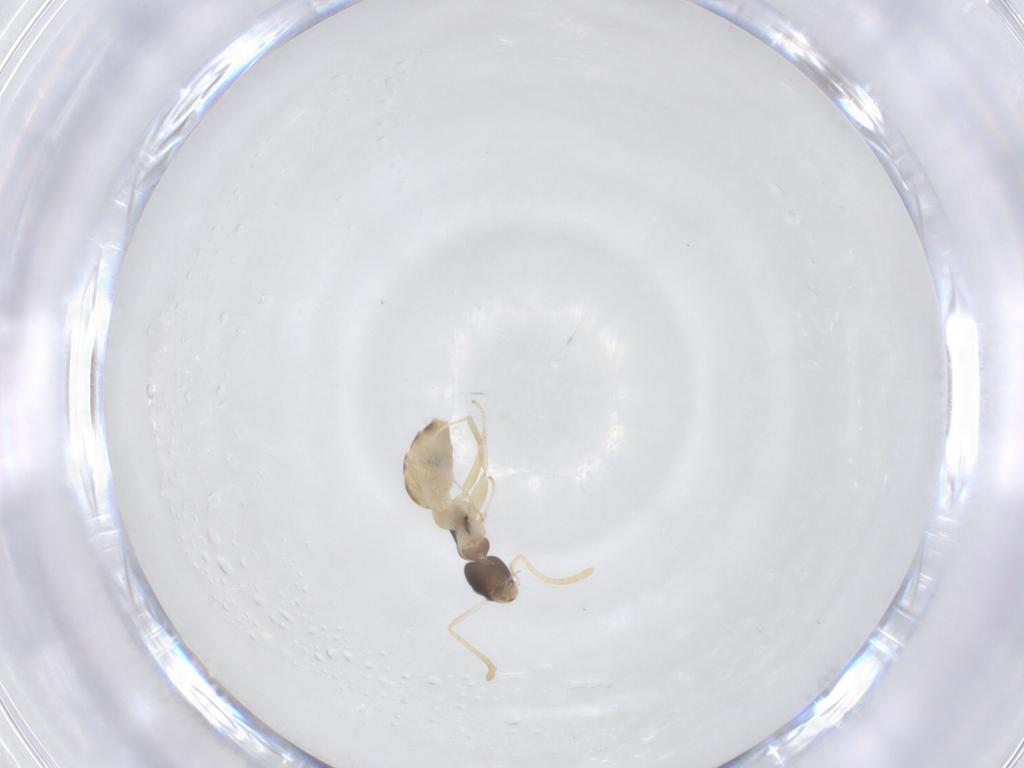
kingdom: Animalia
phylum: Arthropoda
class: Insecta
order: Hymenoptera
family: Formicidae
